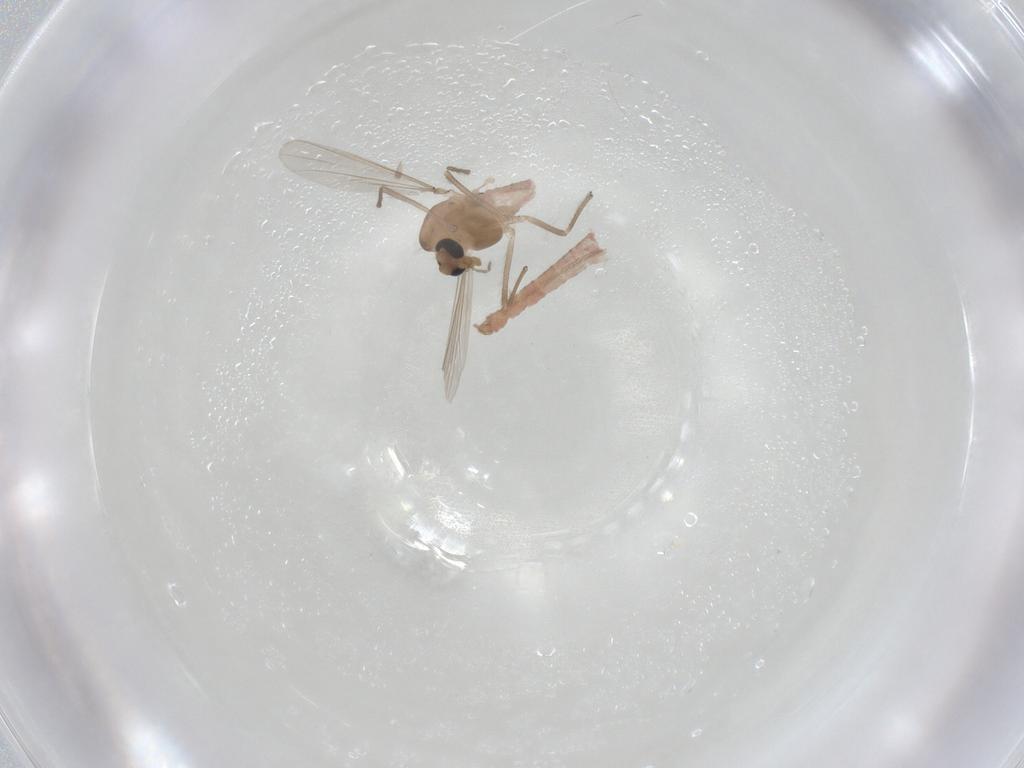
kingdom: Animalia
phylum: Arthropoda
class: Insecta
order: Diptera
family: Chironomidae
